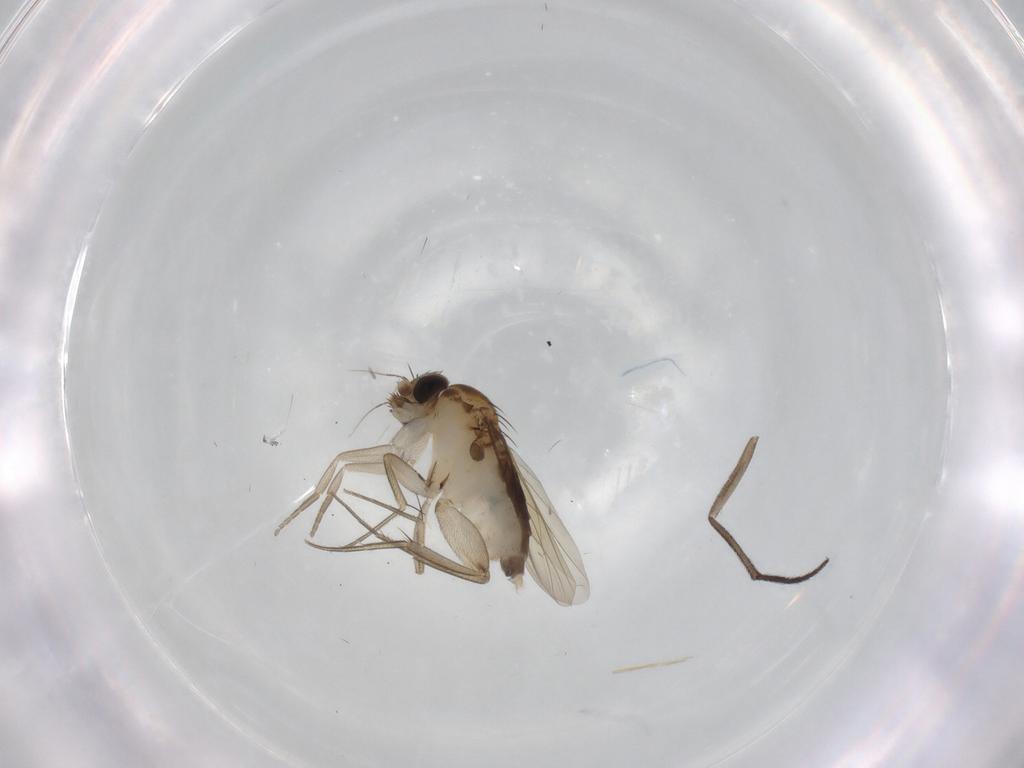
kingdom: Animalia
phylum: Arthropoda
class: Insecta
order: Diptera
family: Phoridae
